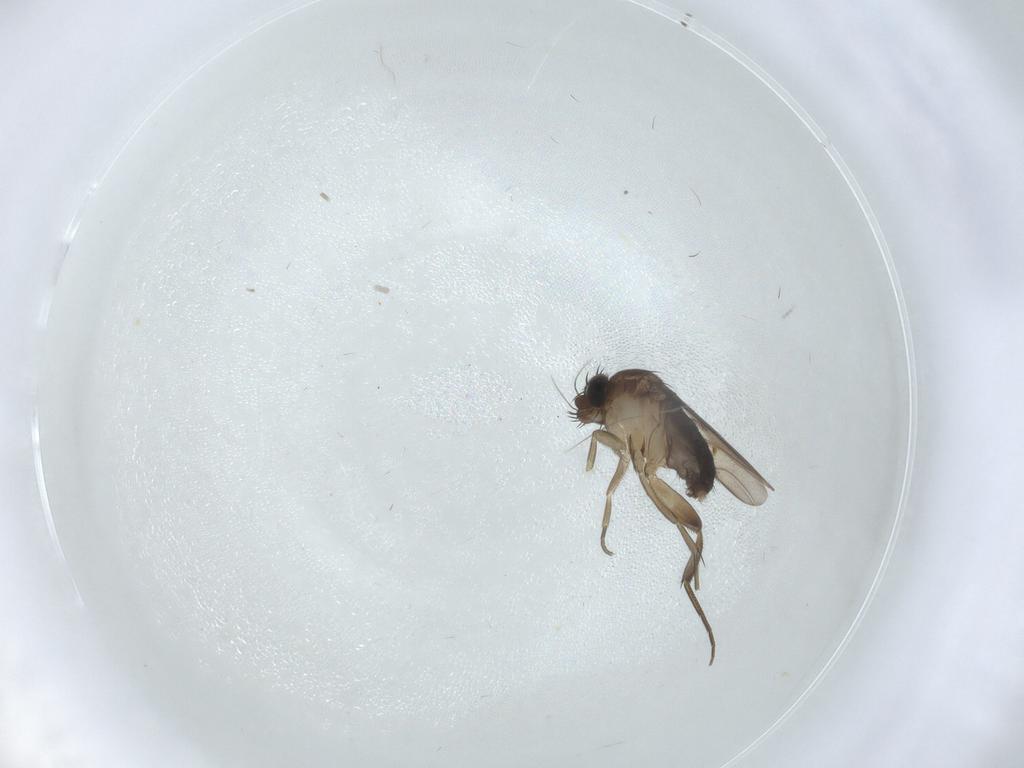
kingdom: Animalia
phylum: Arthropoda
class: Insecta
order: Diptera
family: Phoridae
